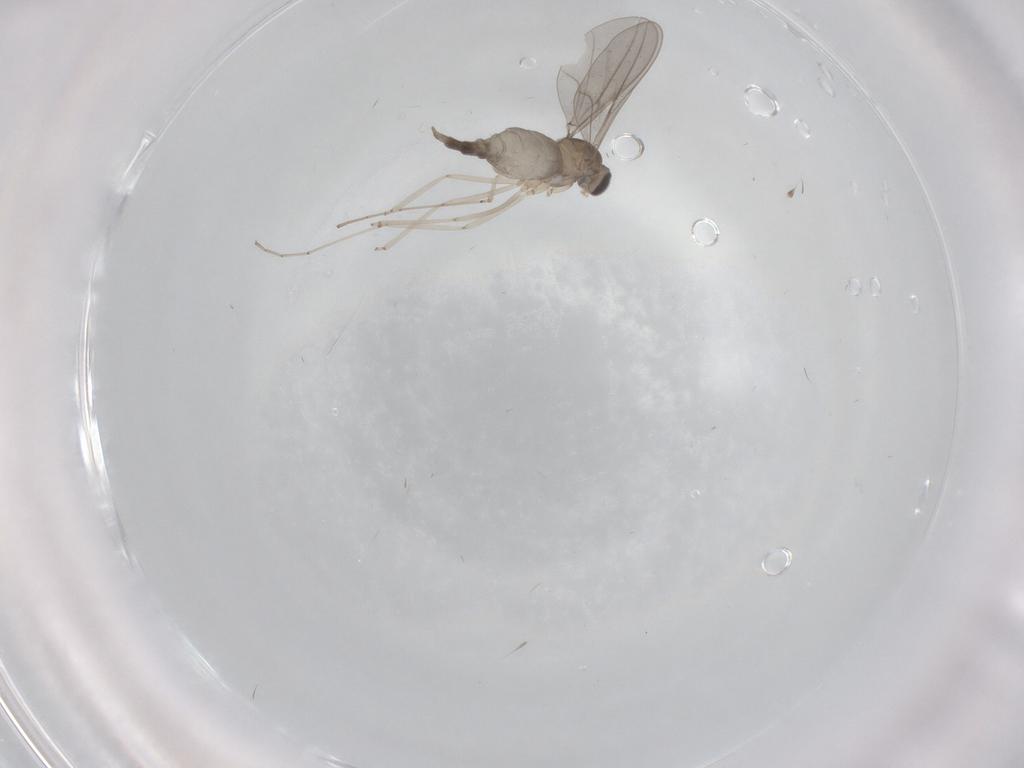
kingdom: Animalia
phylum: Arthropoda
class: Insecta
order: Diptera
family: Cecidomyiidae
